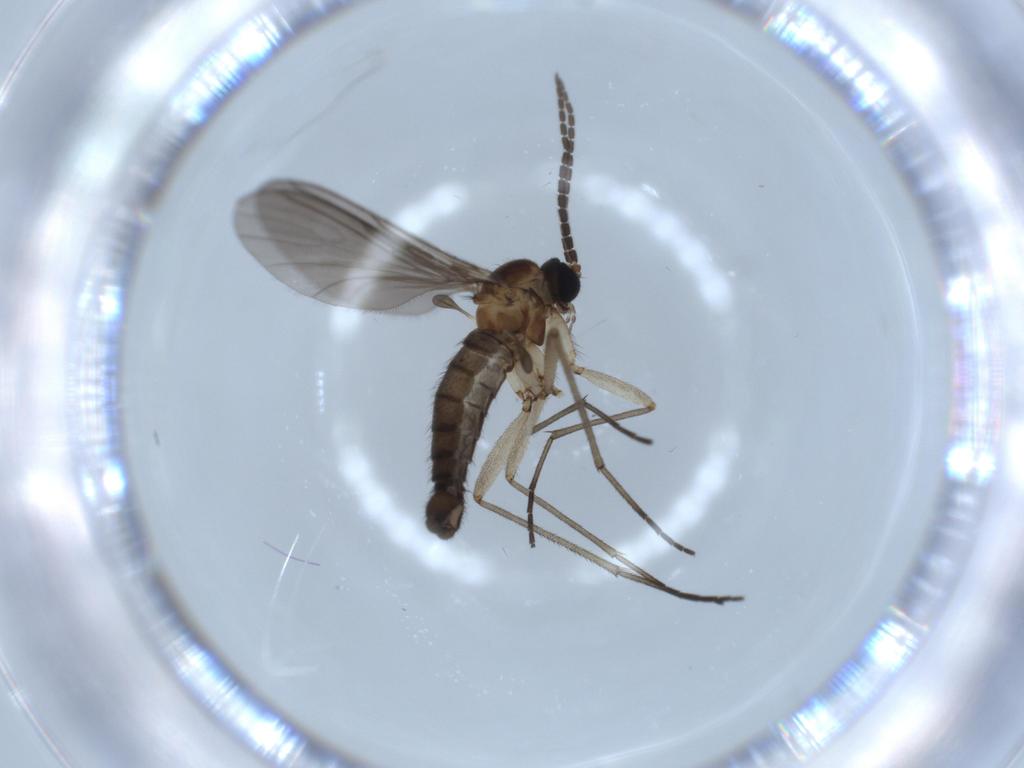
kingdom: Animalia
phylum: Arthropoda
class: Insecta
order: Diptera
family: Sciaridae
